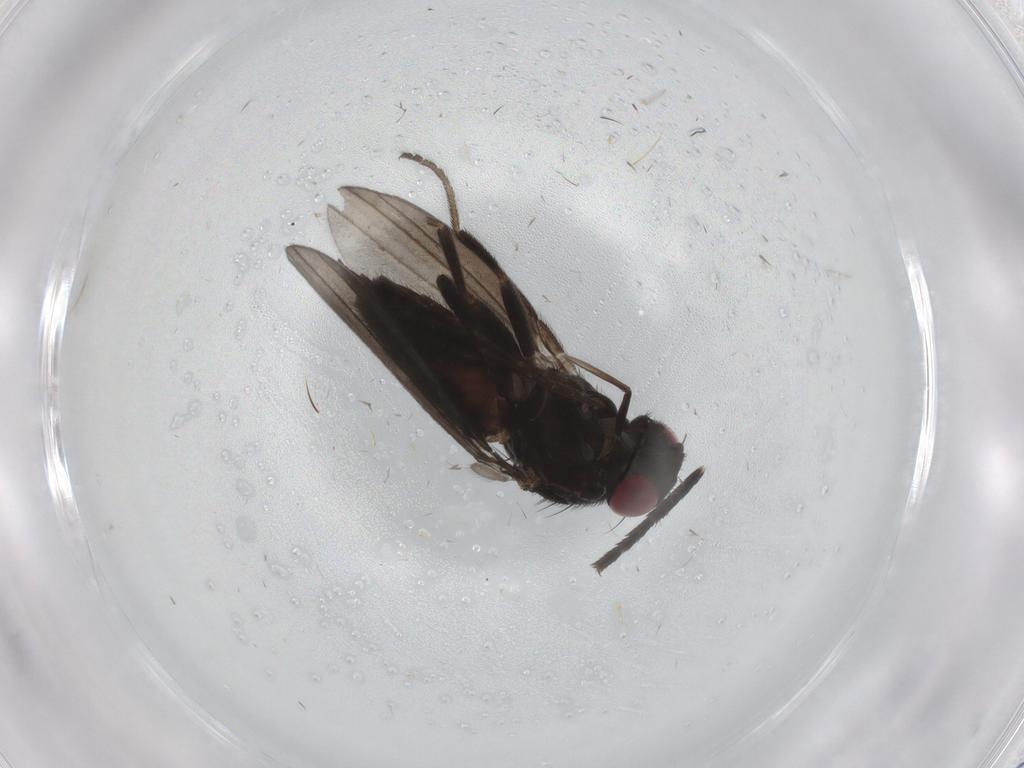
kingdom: Animalia
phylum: Arthropoda
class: Insecta
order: Diptera
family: Milichiidae
